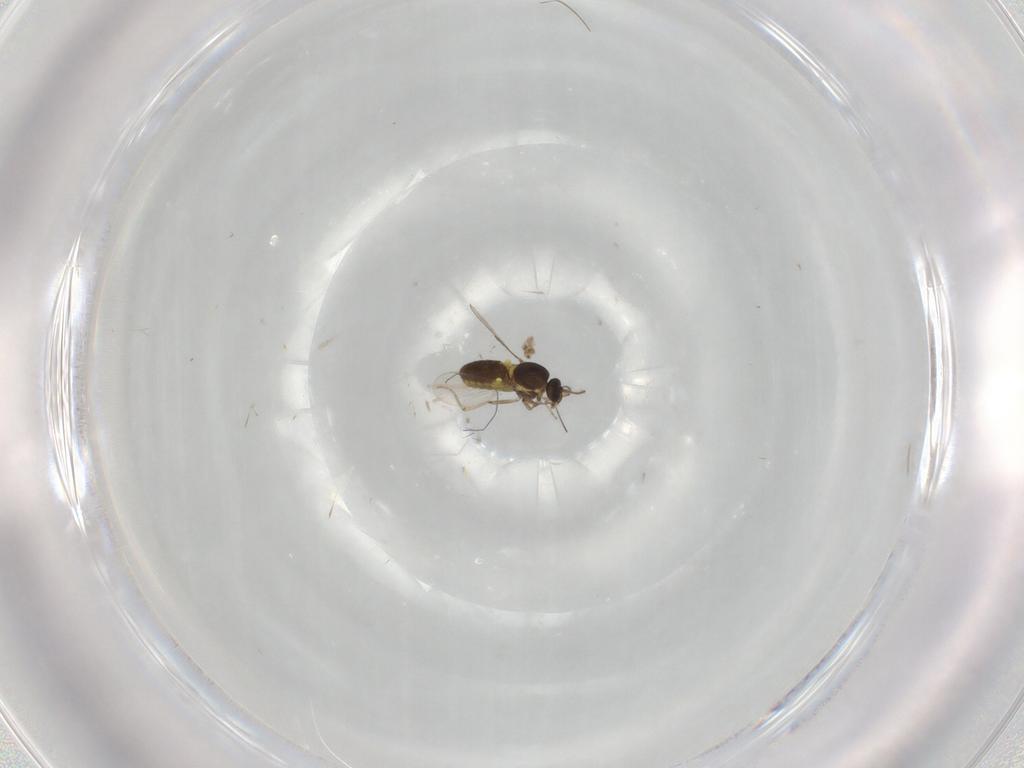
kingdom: Animalia
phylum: Arthropoda
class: Insecta
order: Diptera
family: Ceratopogonidae
